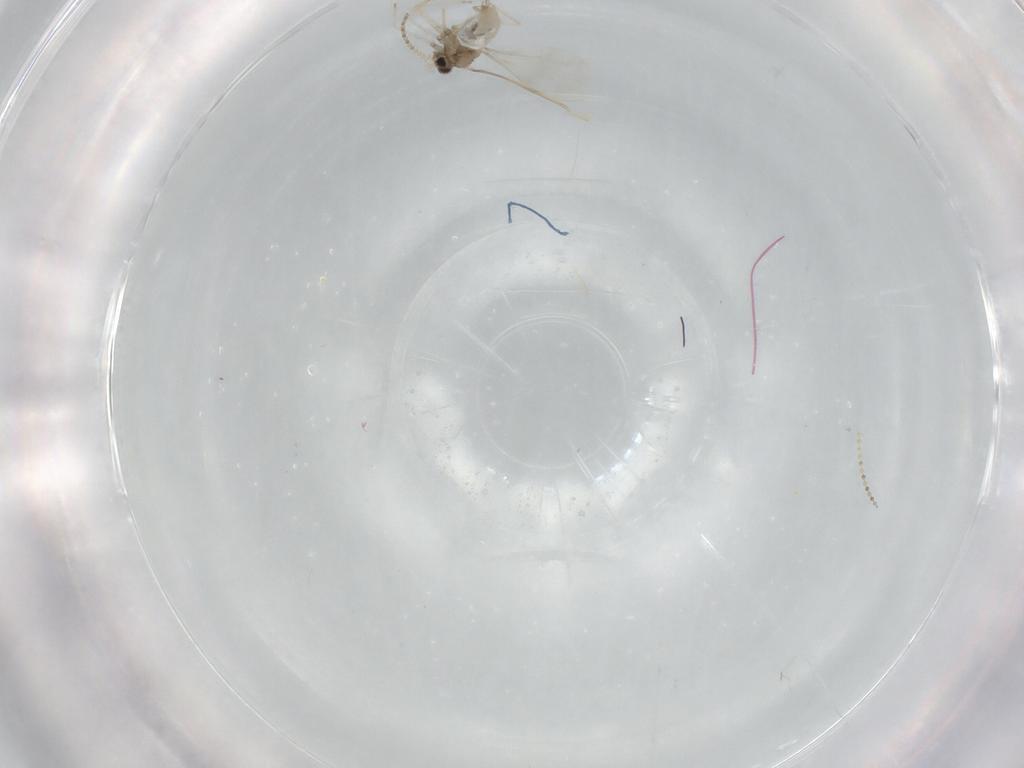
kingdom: Animalia
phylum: Arthropoda
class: Insecta
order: Diptera
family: Cecidomyiidae
